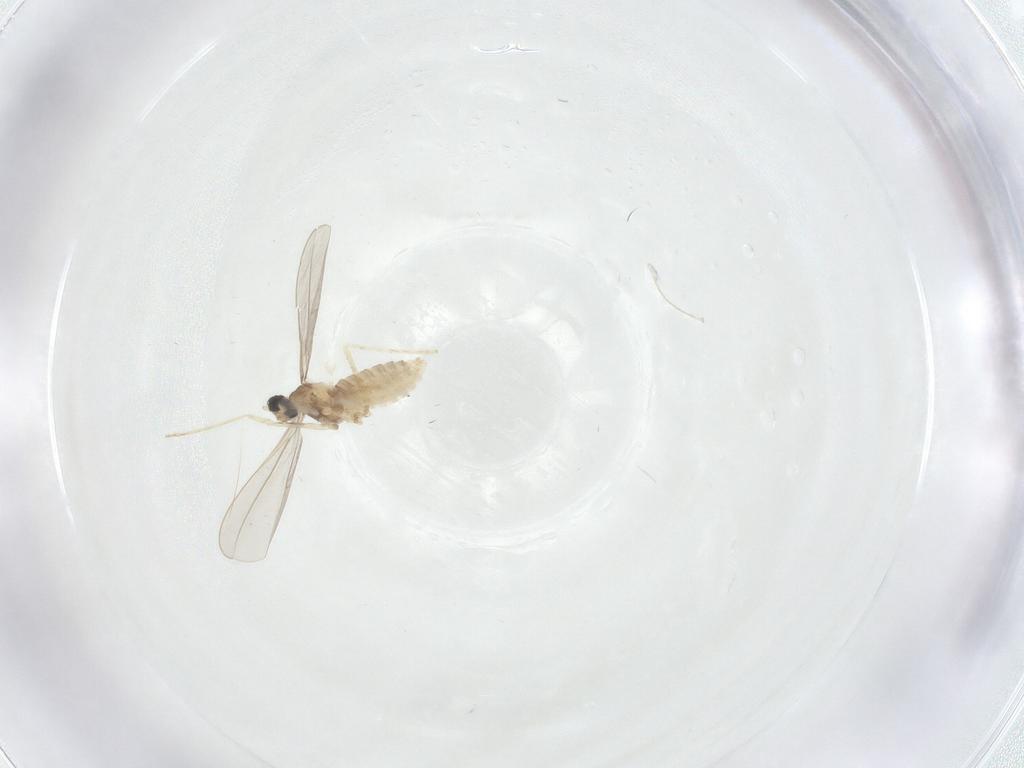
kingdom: Animalia
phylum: Arthropoda
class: Insecta
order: Diptera
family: Cecidomyiidae
